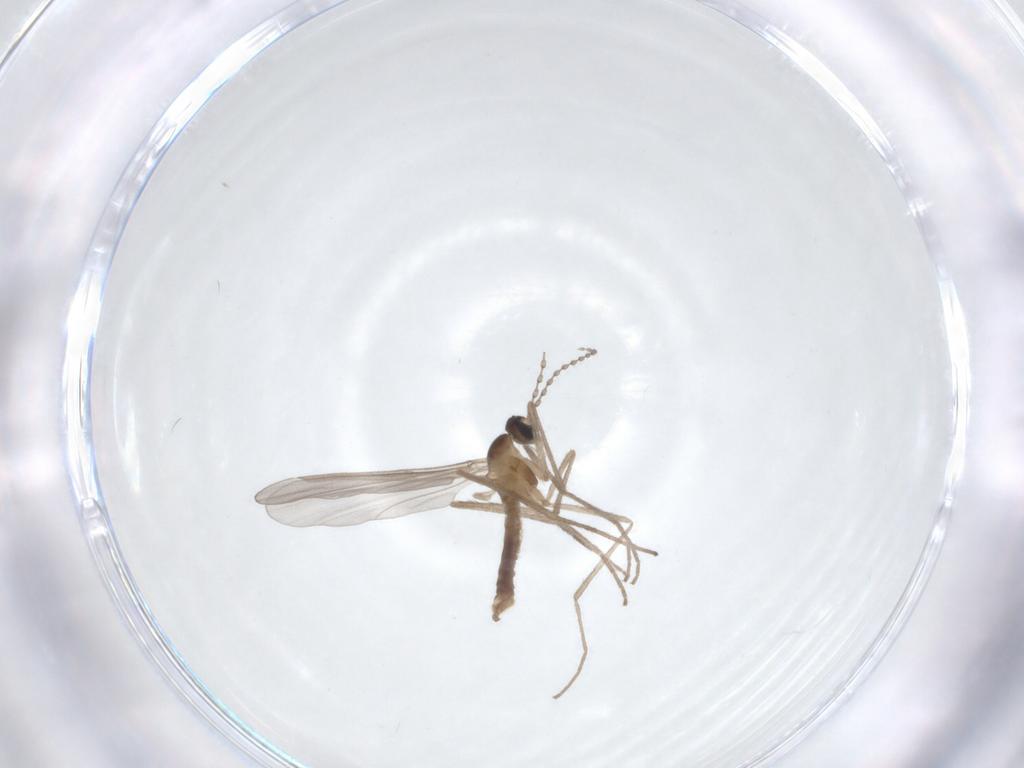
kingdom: Animalia
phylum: Arthropoda
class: Insecta
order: Diptera
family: Cecidomyiidae
